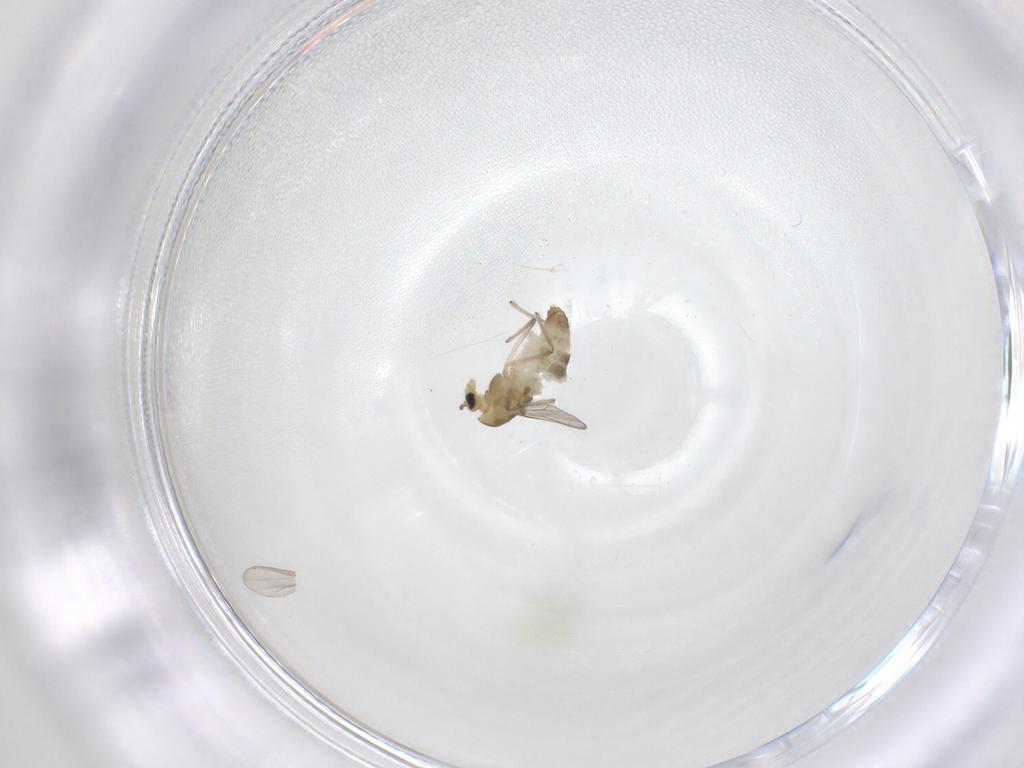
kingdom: Animalia
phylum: Arthropoda
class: Insecta
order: Diptera
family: Chironomidae
